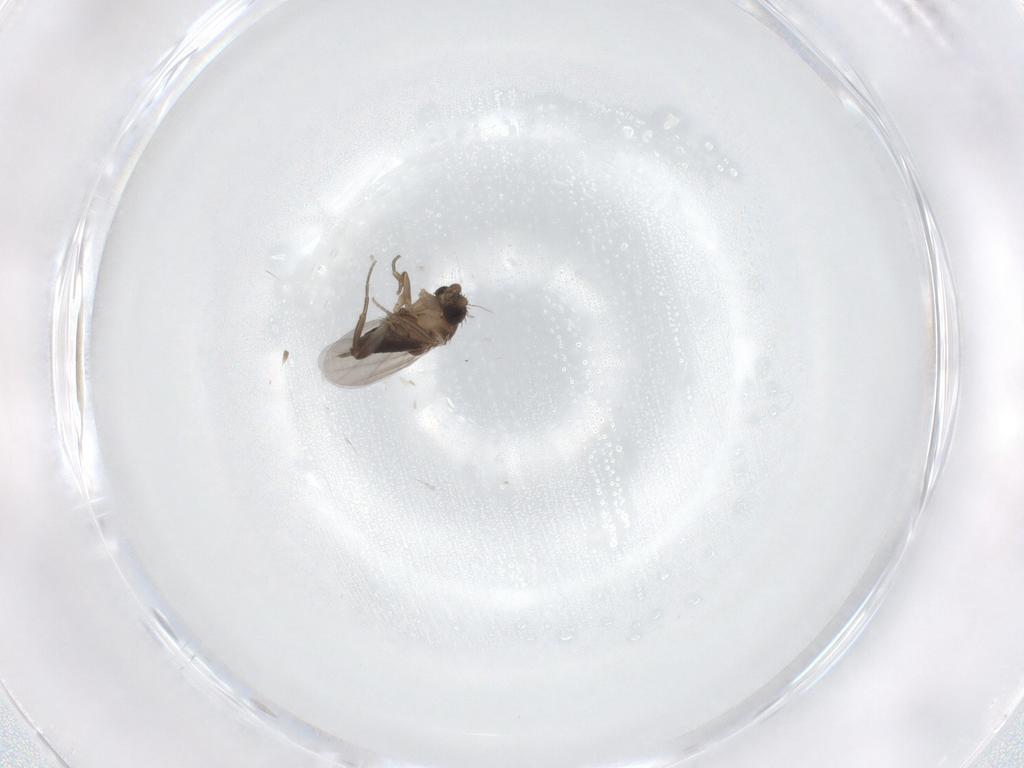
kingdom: Animalia
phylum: Arthropoda
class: Insecta
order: Diptera
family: Phoridae
